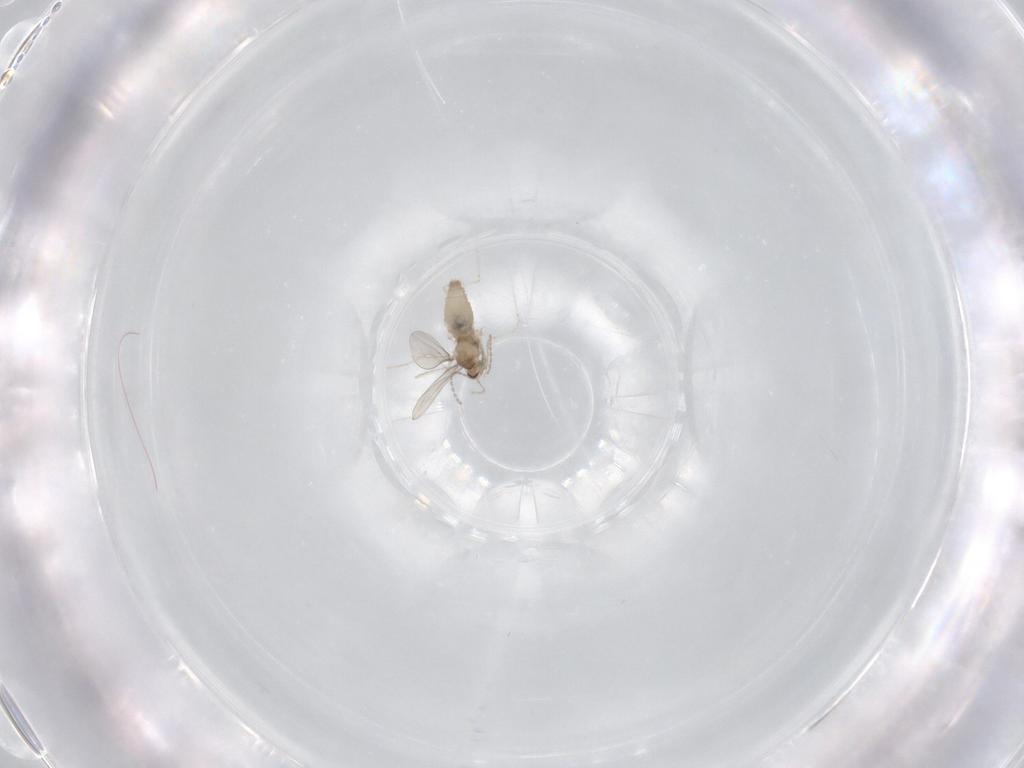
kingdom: Animalia
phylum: Arthropoda
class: Insecta
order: Diptera
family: Cecidomyiidae
